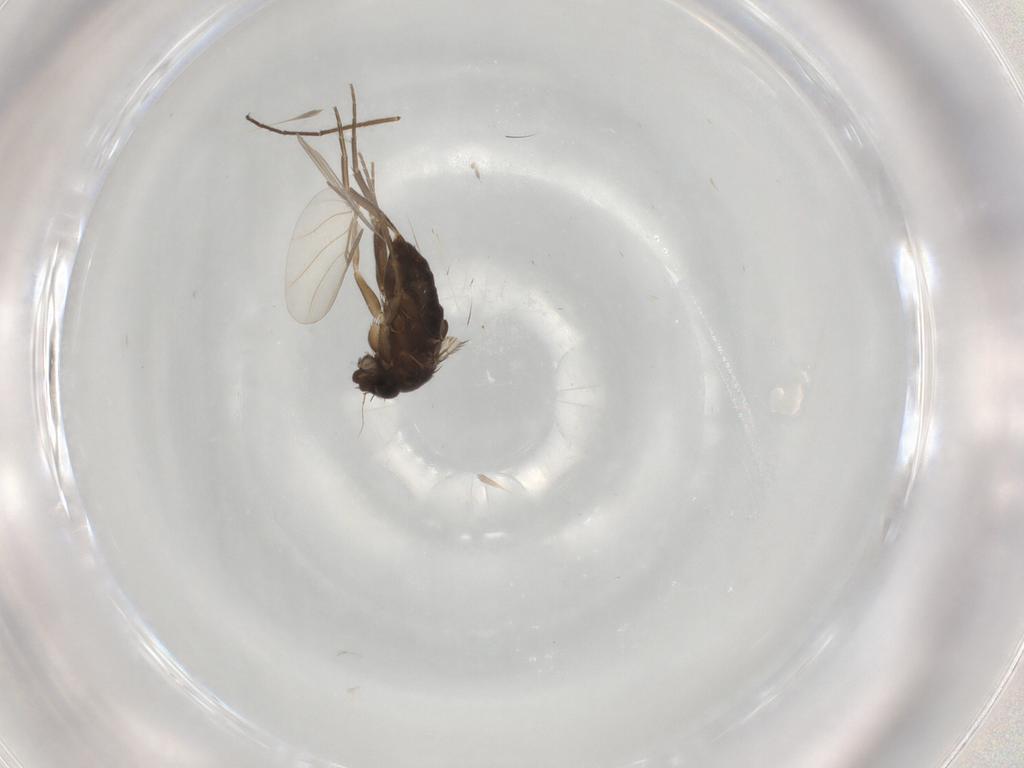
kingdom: Animalia
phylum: Arthropoda
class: Insecta
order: Diptera
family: Phoridae
